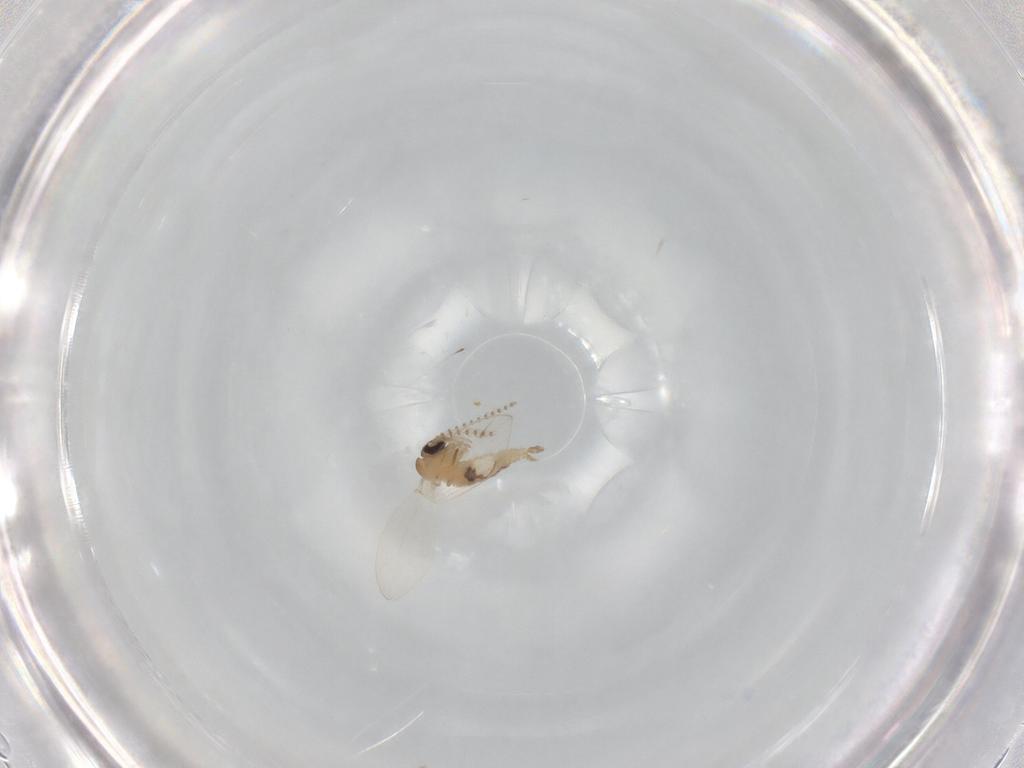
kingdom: Animalia
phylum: Arthropoda
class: Insecta
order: Diptera
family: Psychodidae
